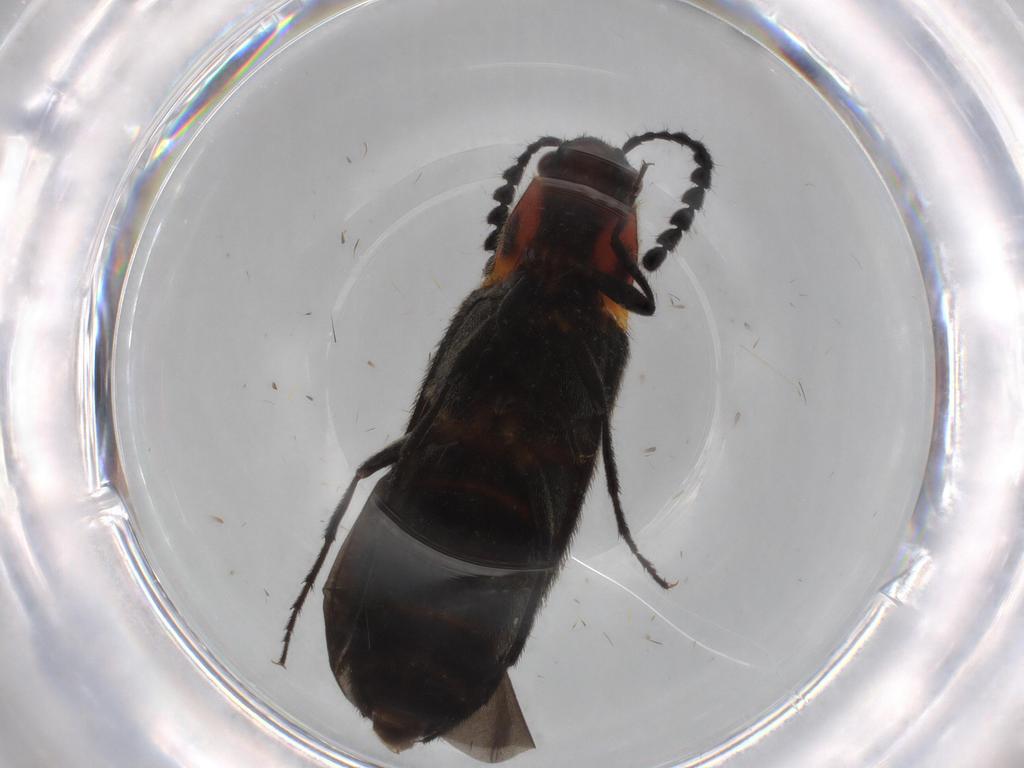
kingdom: Animalia
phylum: Arthropoda
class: Insecta
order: Coleoptera
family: Elateridae
